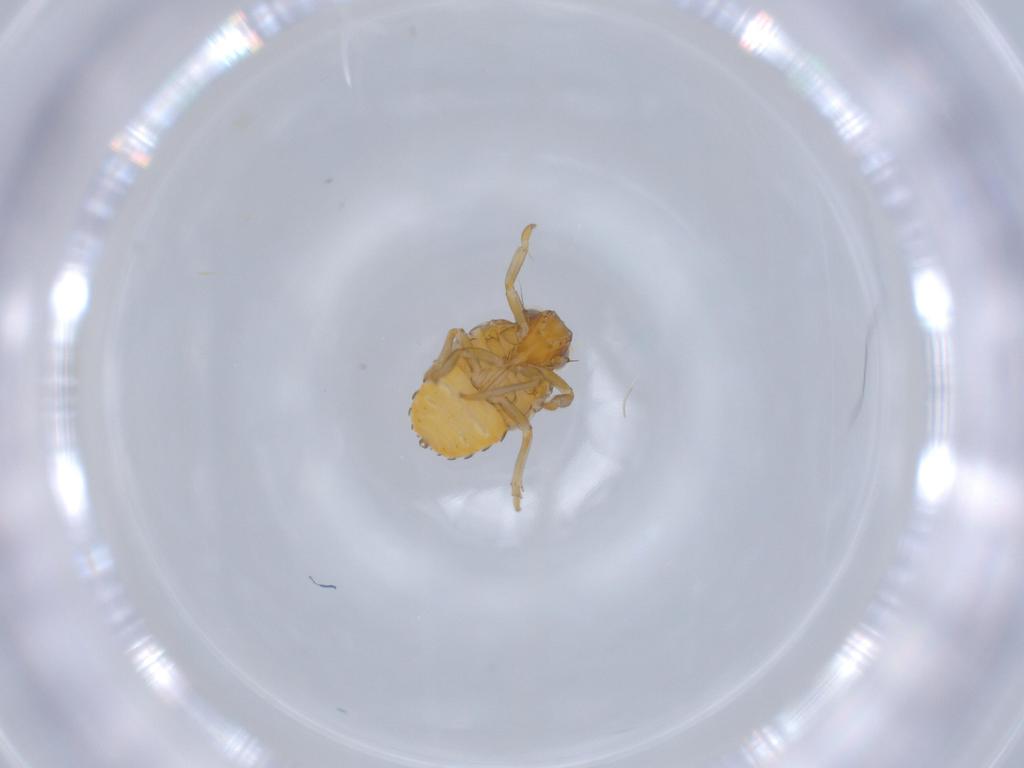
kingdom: Animalia
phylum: Arthropoda
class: Insecta
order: Hemiptera
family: Issidae
